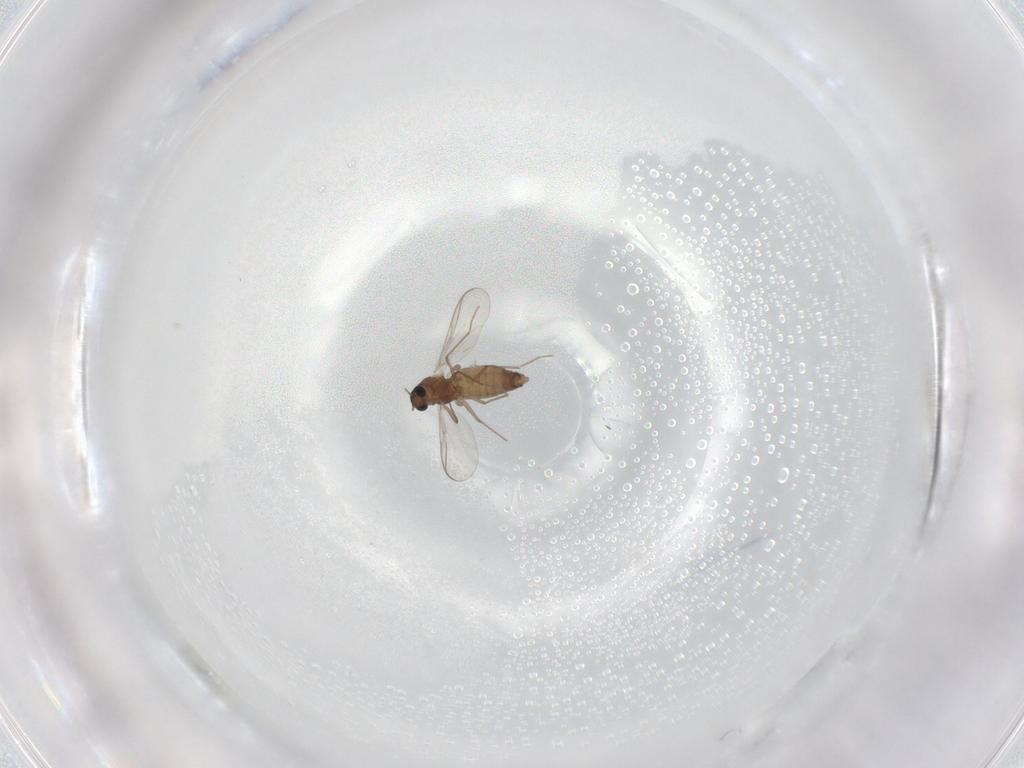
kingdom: Animalia
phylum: Arthropoda
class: Insecta
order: Diptera
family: Chironomidae
